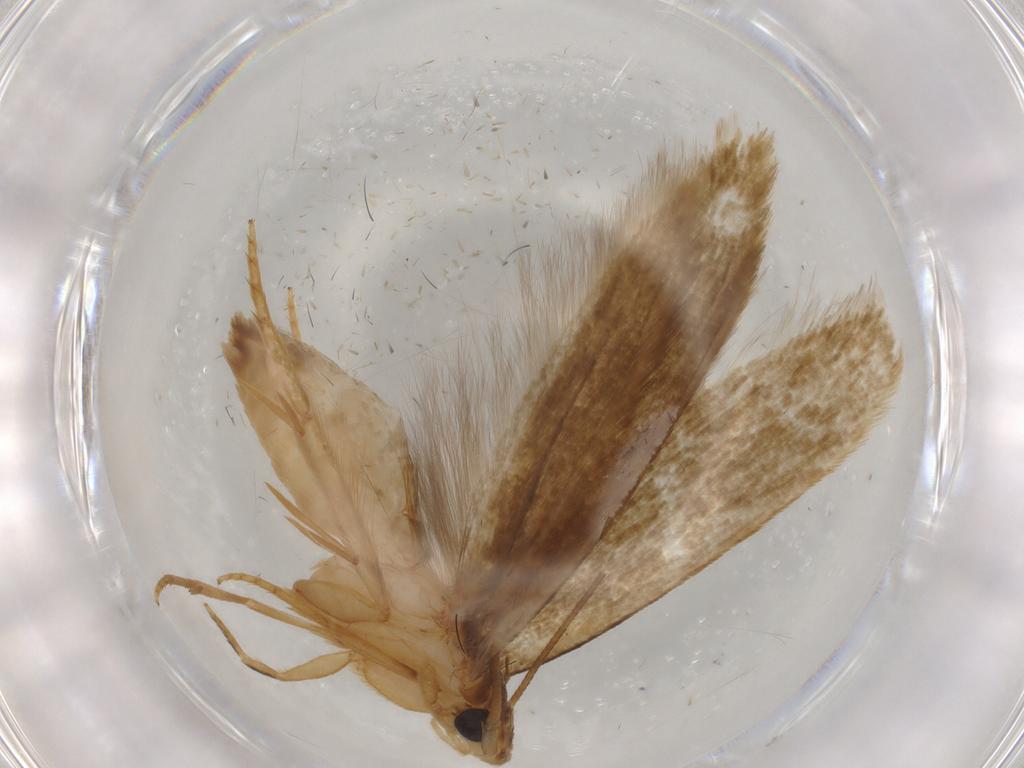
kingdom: Animalia
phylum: Arthropoda
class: Insecta
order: Lepidoptera
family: Tineidae
